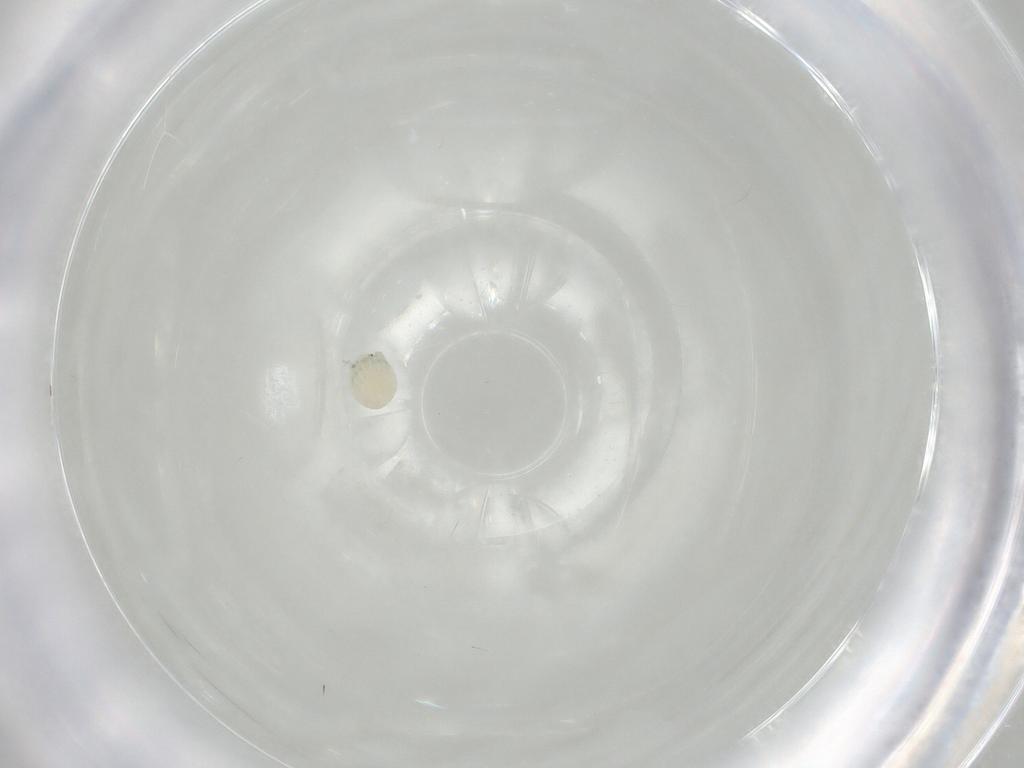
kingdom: Animalia
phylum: Arthropoda
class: Arachnida
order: Trombidiformes
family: Arrenuridae
